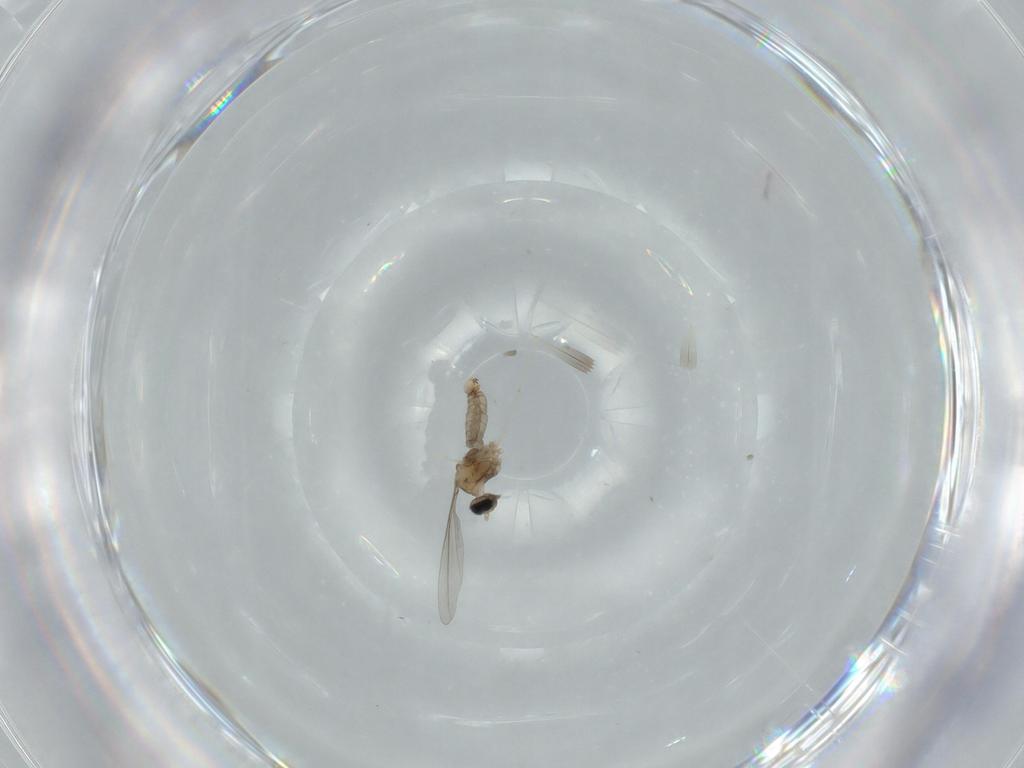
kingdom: Animalia
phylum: Arthropoda
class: Insecta
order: Diptera
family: Cecidomyiidae
